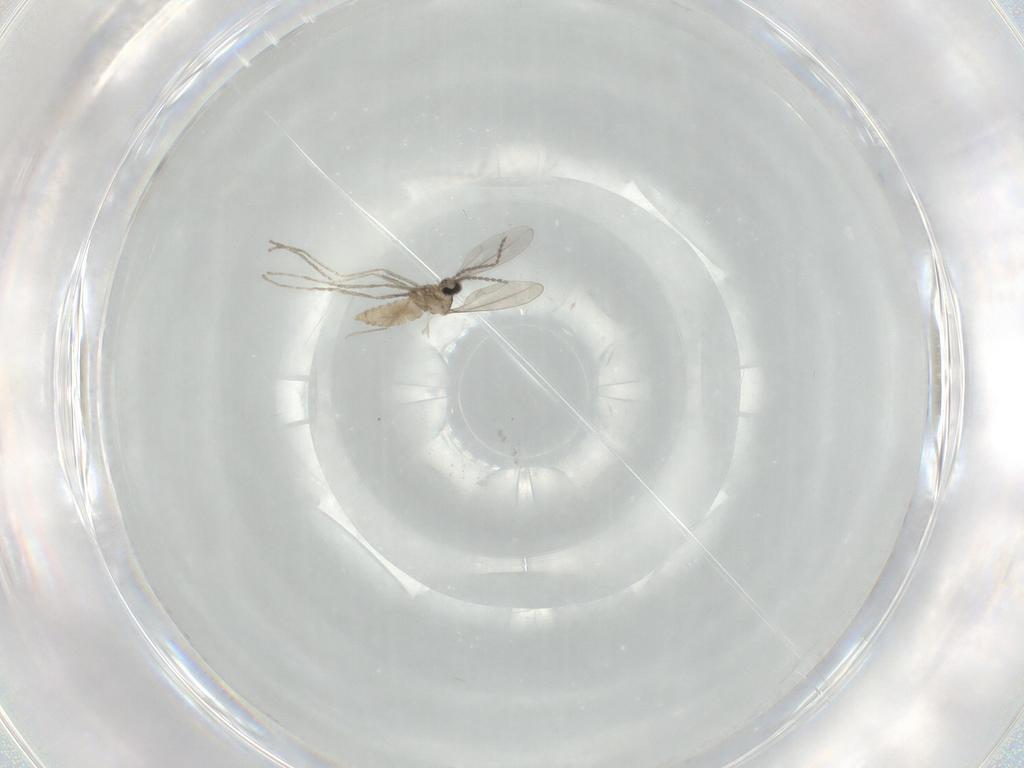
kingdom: Animalia
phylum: Arthropoda
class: Insecta
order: Diptera
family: Cecidomyiidae
